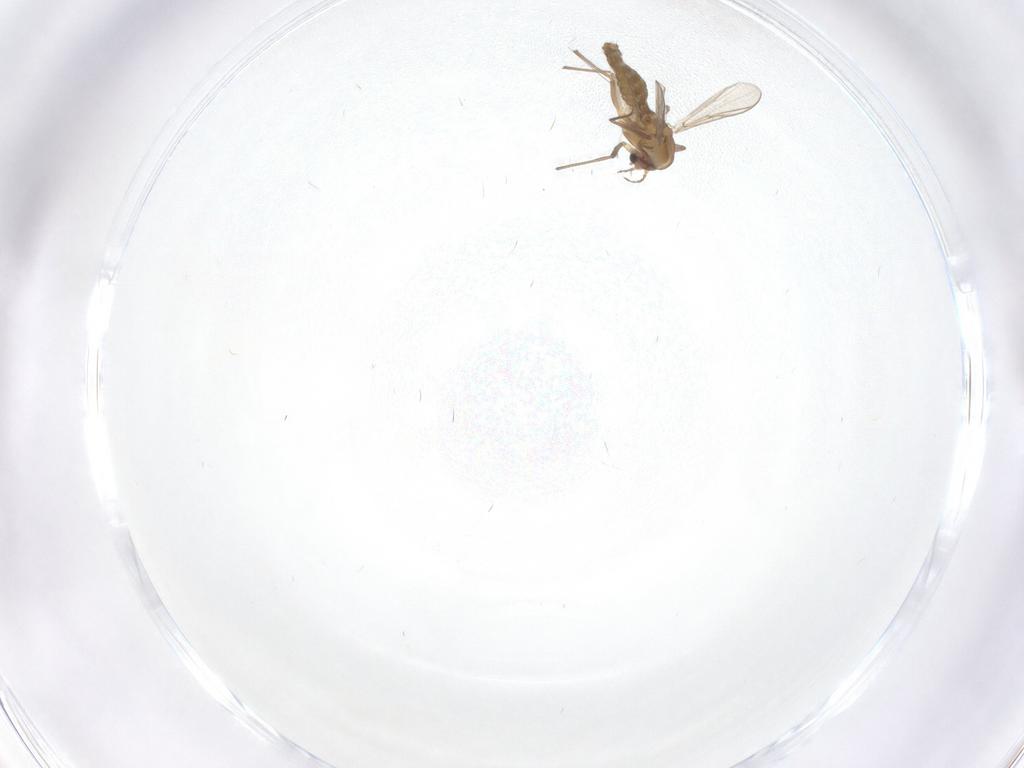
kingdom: Animalia
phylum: Arthropoda
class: Insecta
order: Diptera
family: Chironomidae
